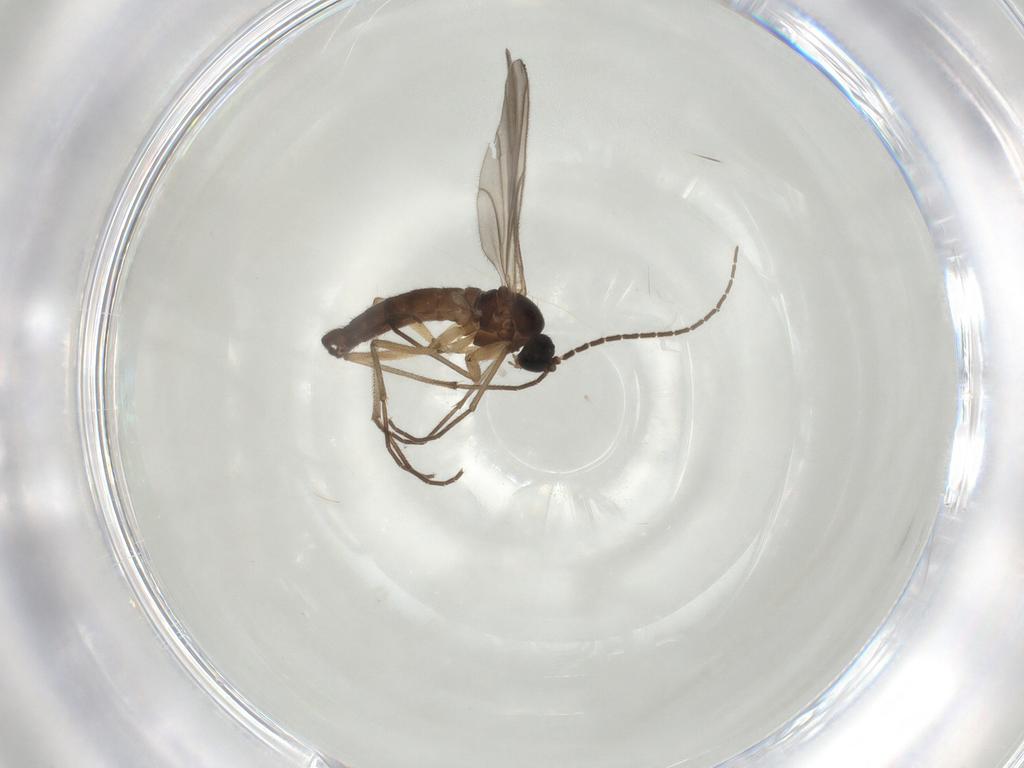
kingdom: Animalia
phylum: Arthropoda
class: Insecta
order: Diptera
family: Sciaridae
